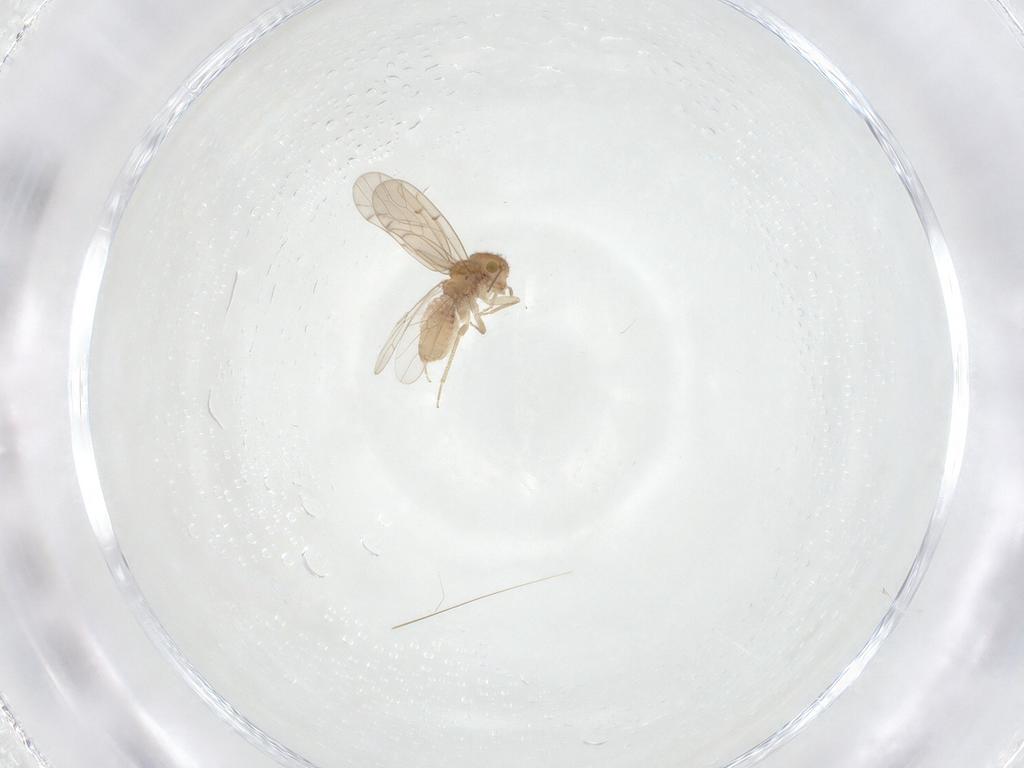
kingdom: Animalia
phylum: Arthropoda
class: Insecta
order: Psocodea
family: Ectopsocidae
